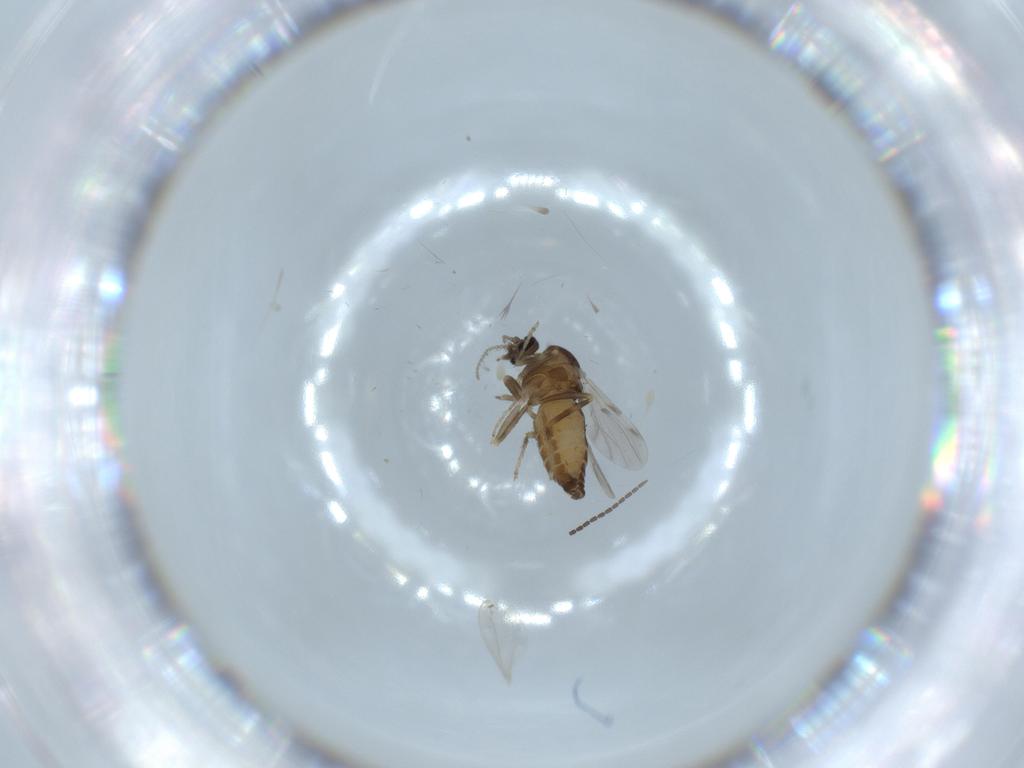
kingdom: Animalia
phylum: Arthropoda
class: Insecta
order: Diptera
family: Ceratopogonidae
